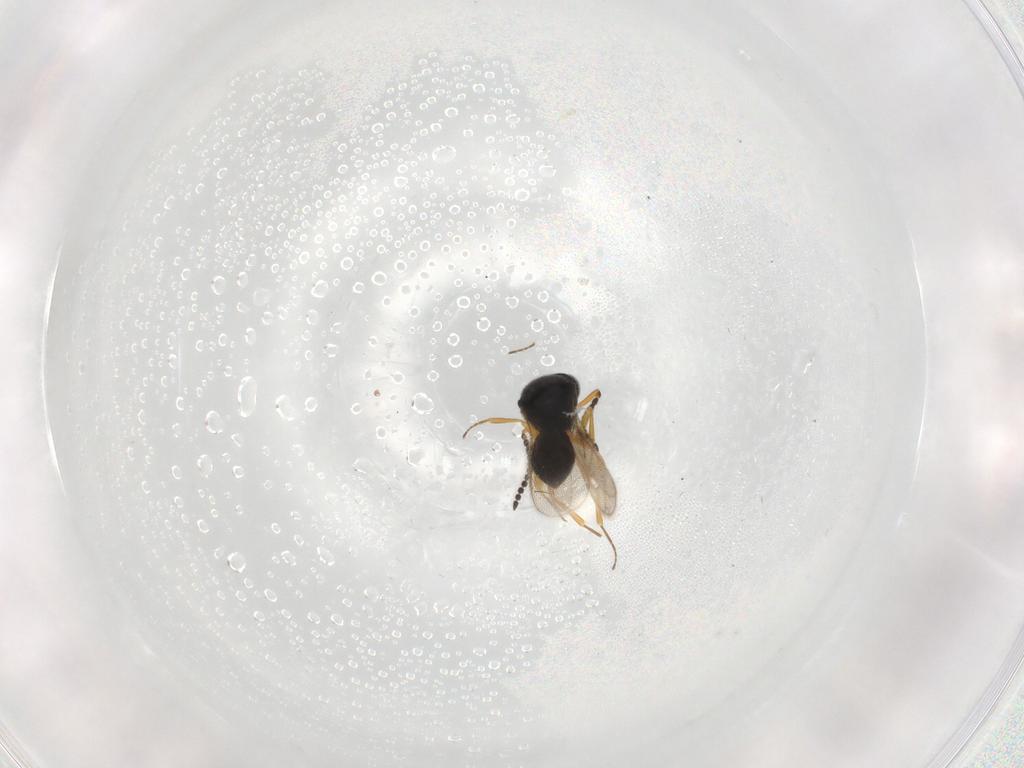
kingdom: Animalia
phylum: Arthropoda
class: Insecta
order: Hymenoptera
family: Scelionidae
